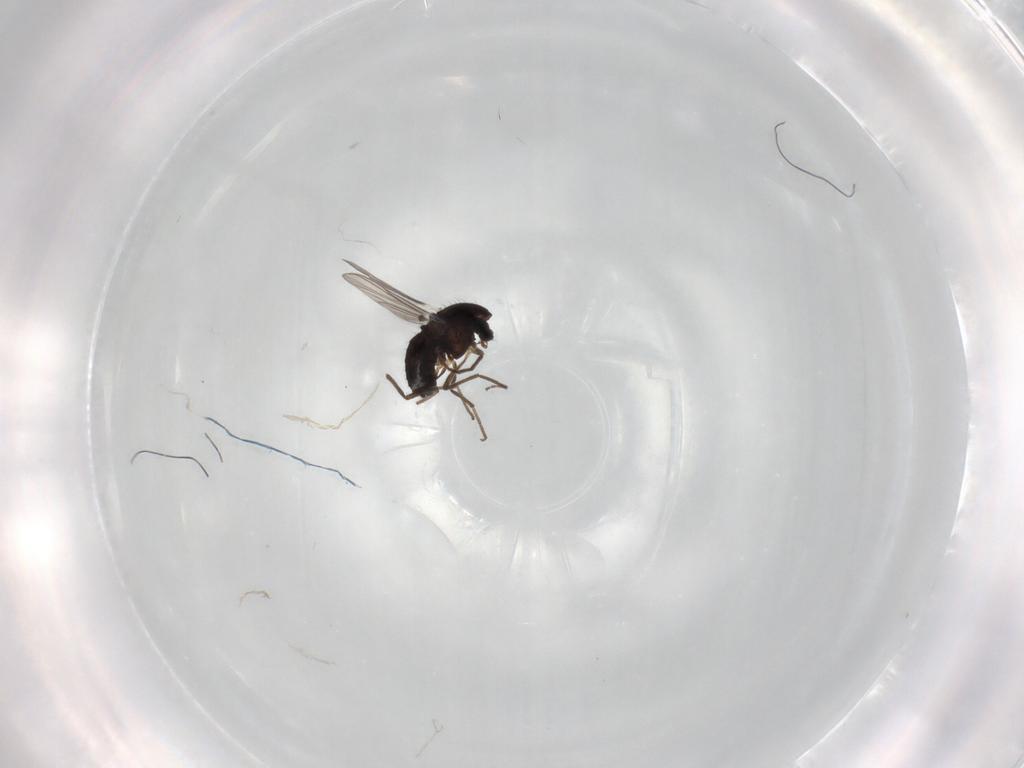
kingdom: Animalia
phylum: Arthropoda
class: Insecta
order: Diptera
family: Chironomidae
